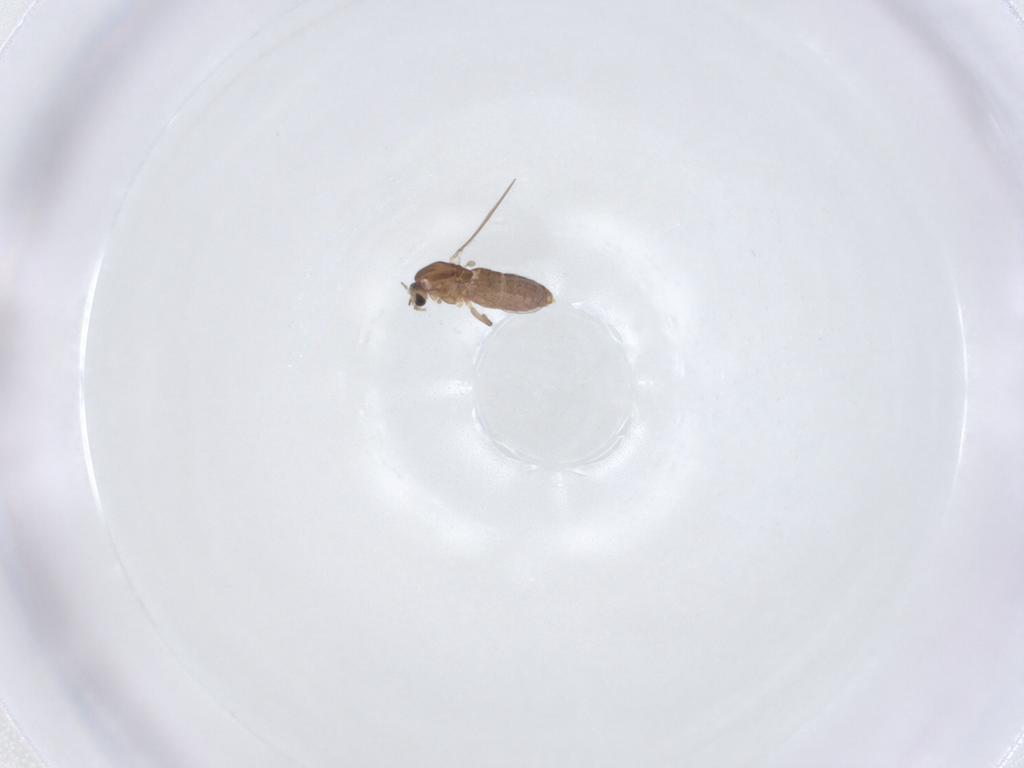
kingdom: Animalia
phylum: Arthropoda
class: Insecta
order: Diptera
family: Chironomidae
